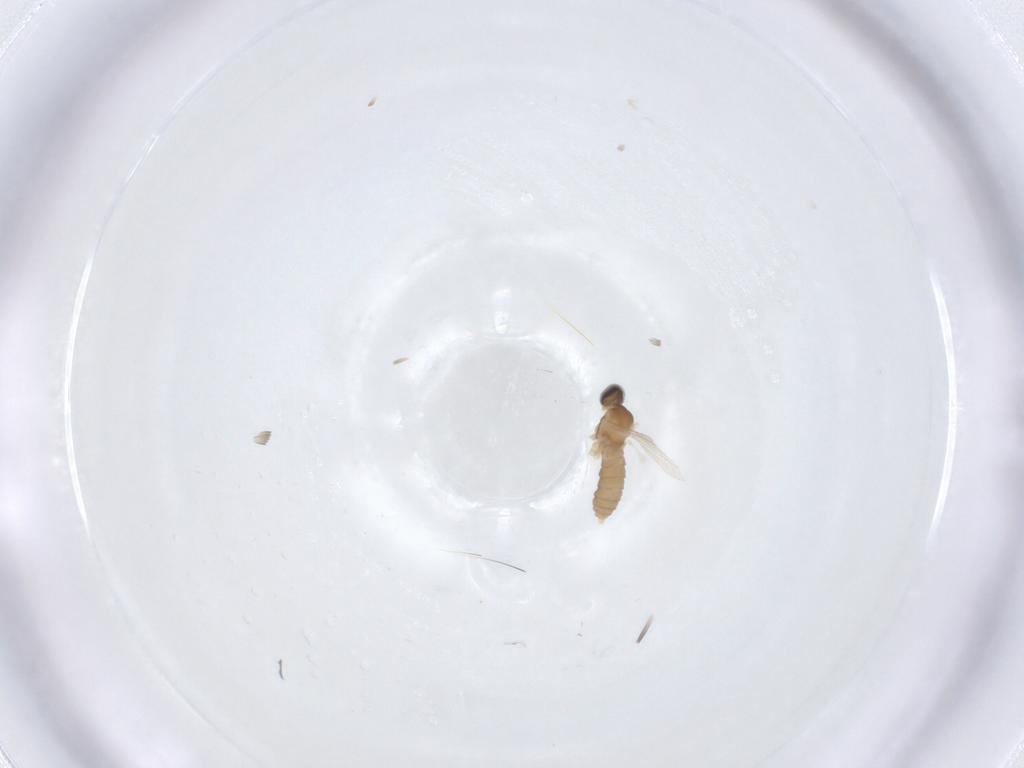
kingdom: Animalia
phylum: Arthropoda
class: Insecta
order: Diptera
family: Cecidomyiidae
